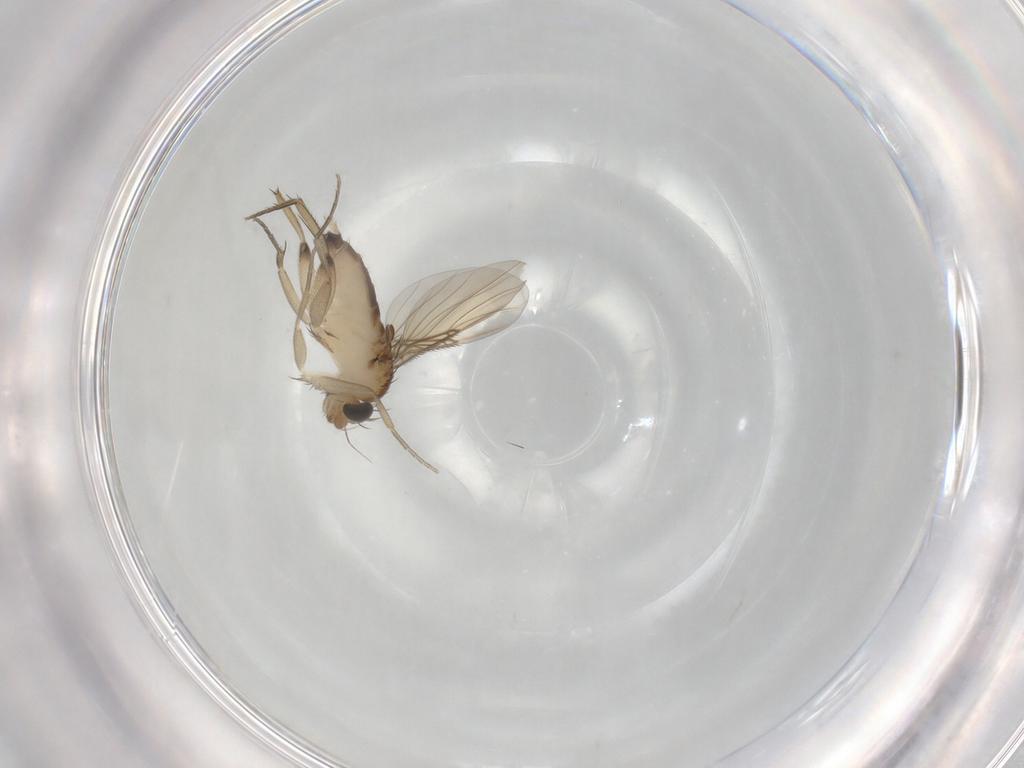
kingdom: Animalia
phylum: Arthropoda
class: Insecta
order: Diptera
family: Phoridae
